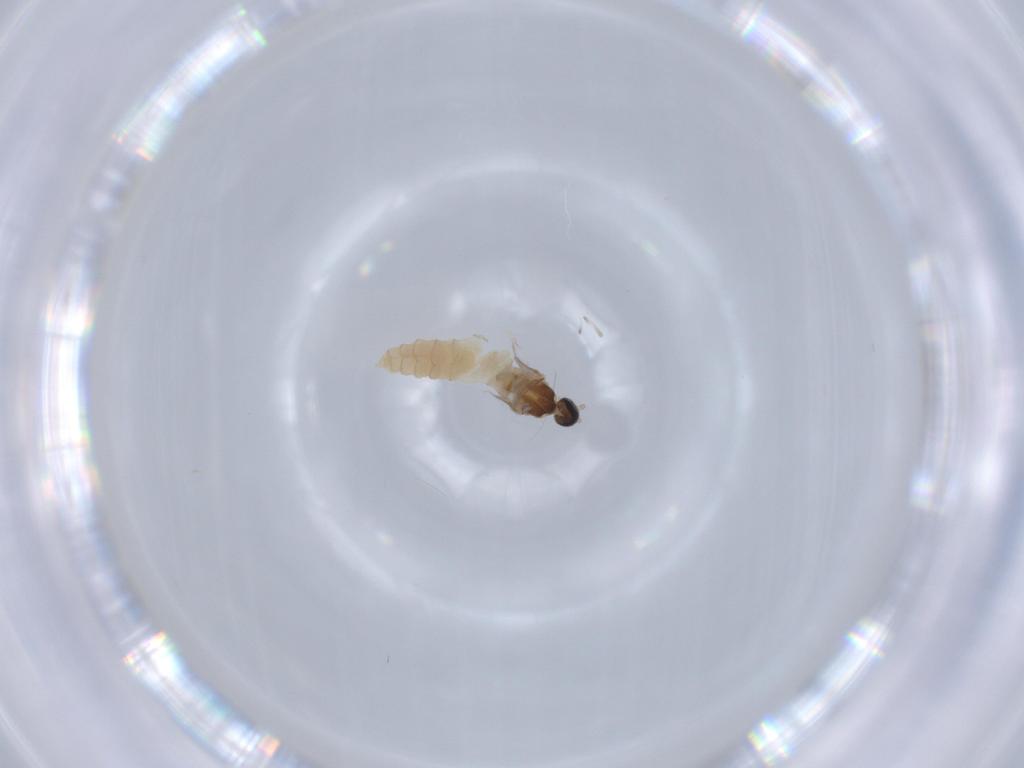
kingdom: Animalia
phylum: Arthropoda
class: Insecta
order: Diptera
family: Cecidomyiidae
